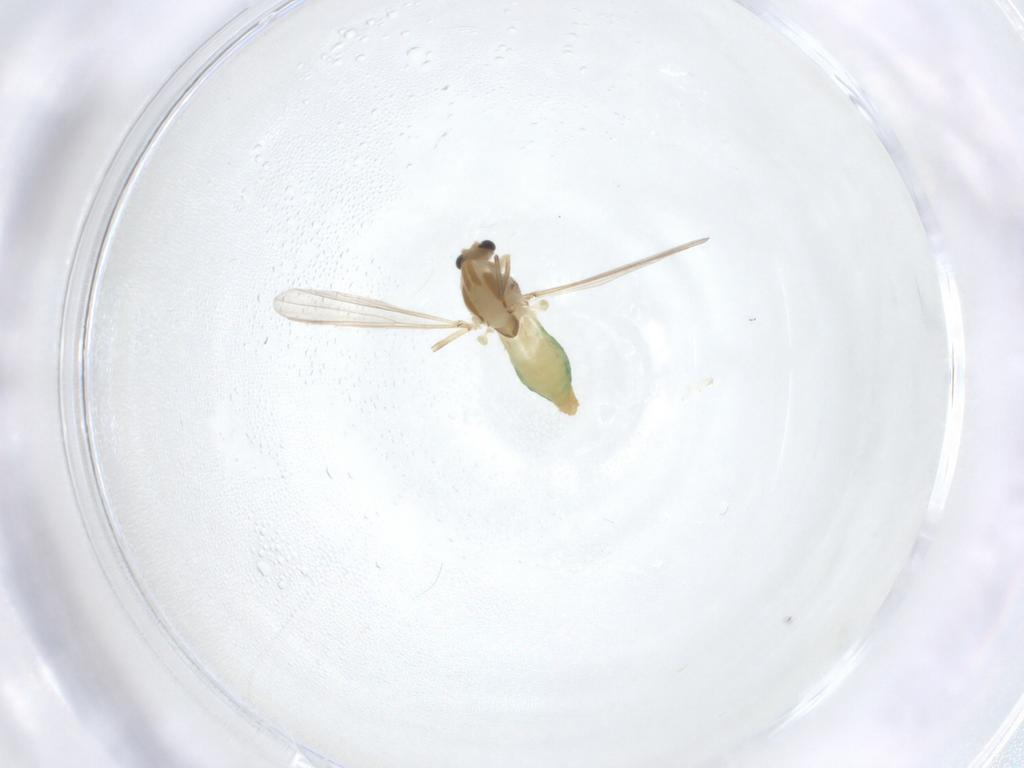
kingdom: Animalia
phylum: Arthropoda
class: Insecta
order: Diptera
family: Chironomidae
